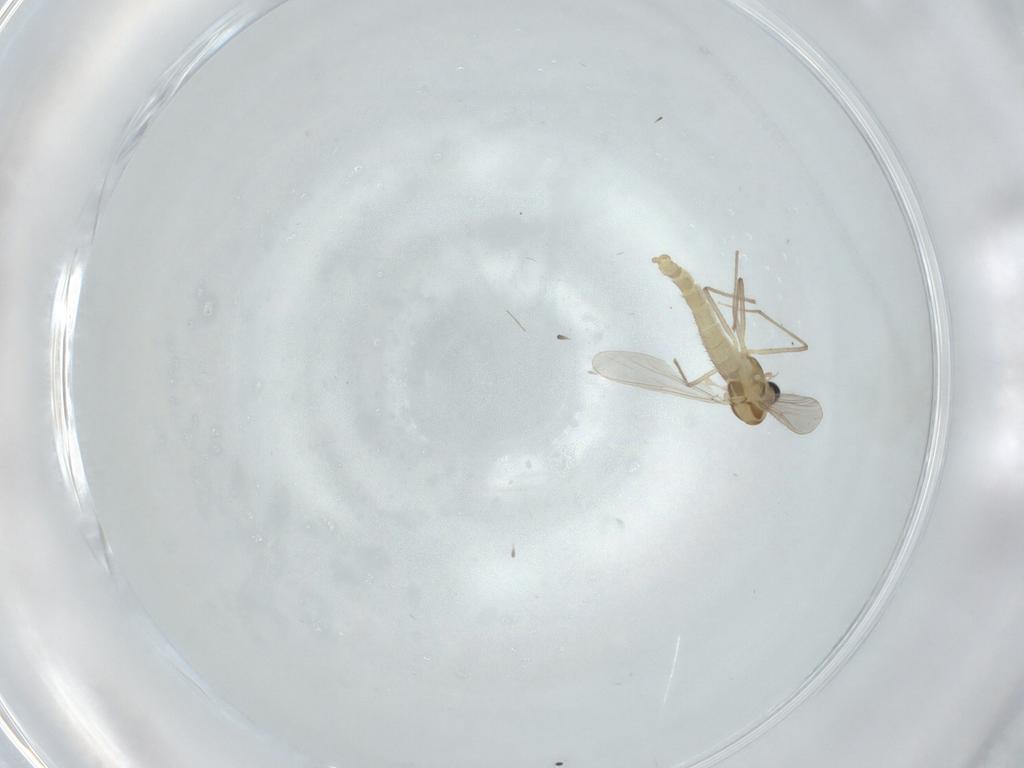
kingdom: Animalia
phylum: Arthropoda
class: Insecta
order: Diptera
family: Chironomidae
